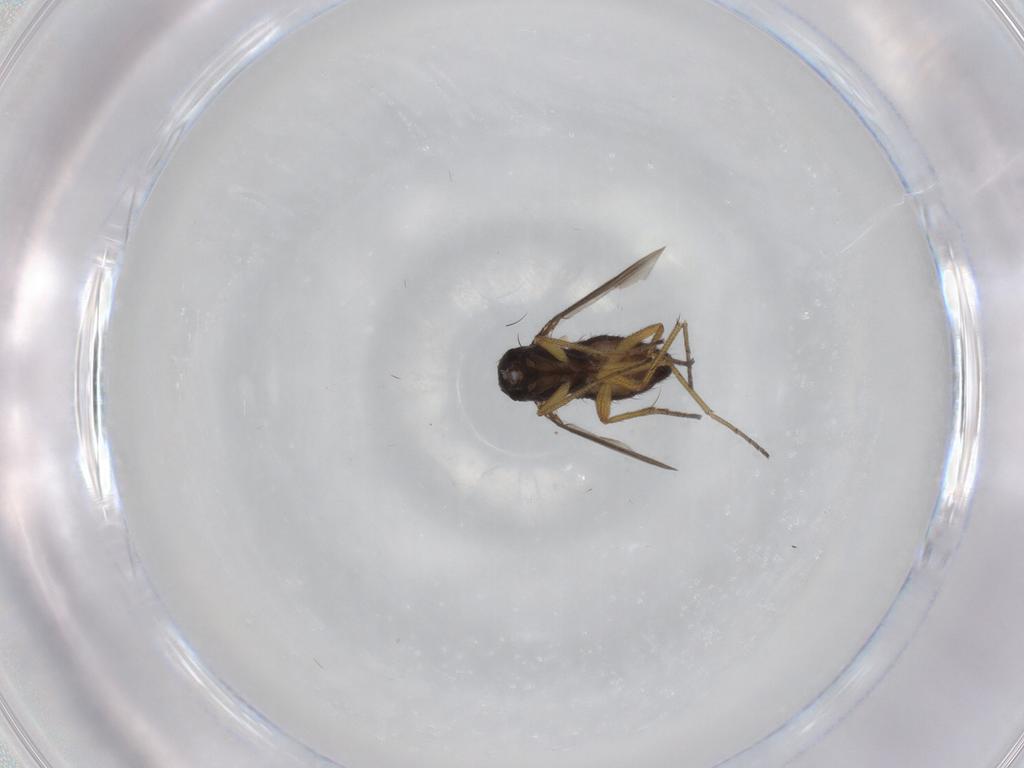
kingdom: Animalia
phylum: Arthropoda
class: Insecta
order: Diptera
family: Dolichopodidae
